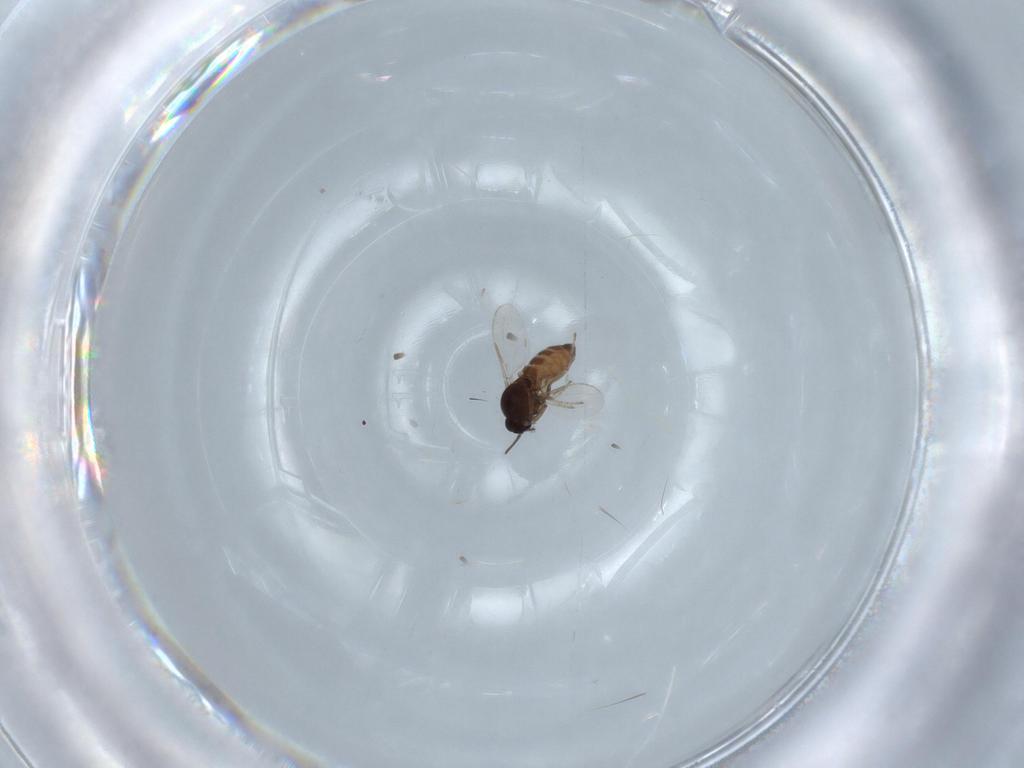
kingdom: Animalia
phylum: Arthropoda
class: Insecta
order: Diptera
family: Ceratopogonidae
